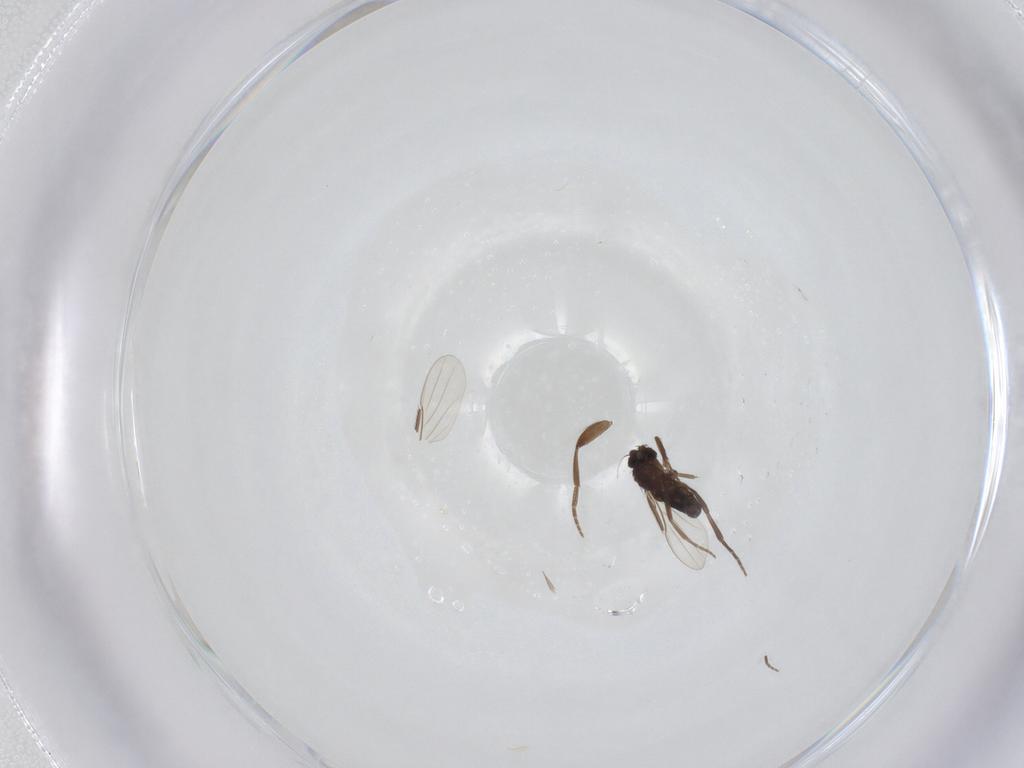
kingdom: Animalia
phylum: Arthropoda
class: Insecta
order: Diptera
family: Phoridae
